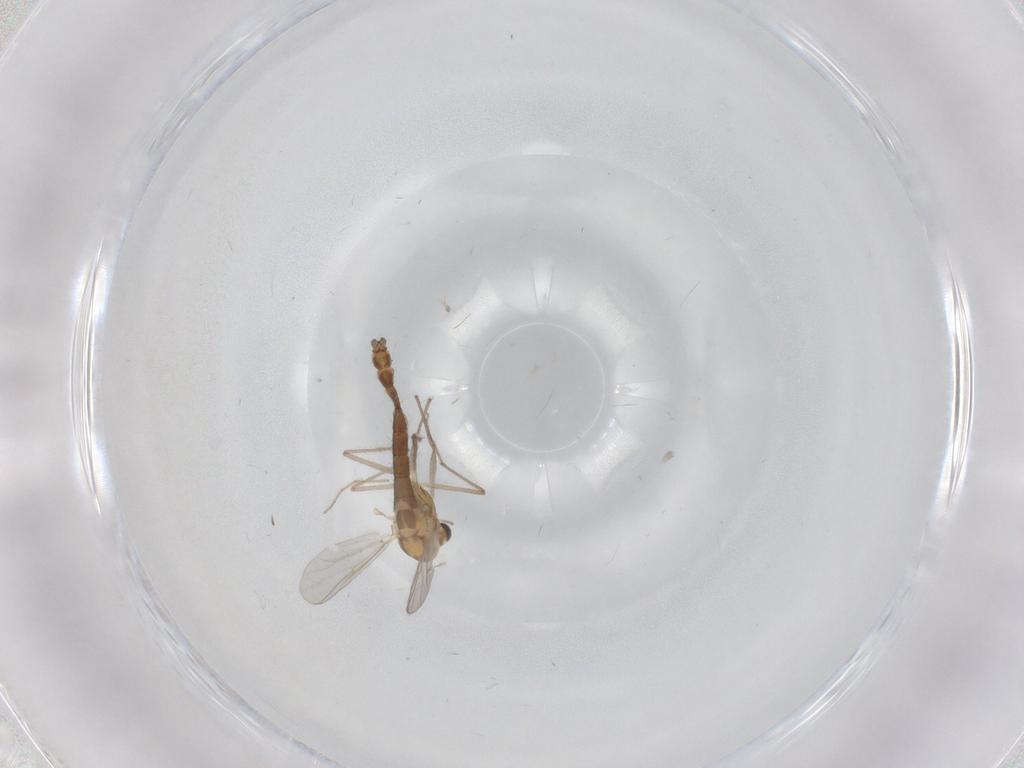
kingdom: Animalia
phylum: Arthropoda
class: Insecta
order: Diptera
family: Chironomidae
